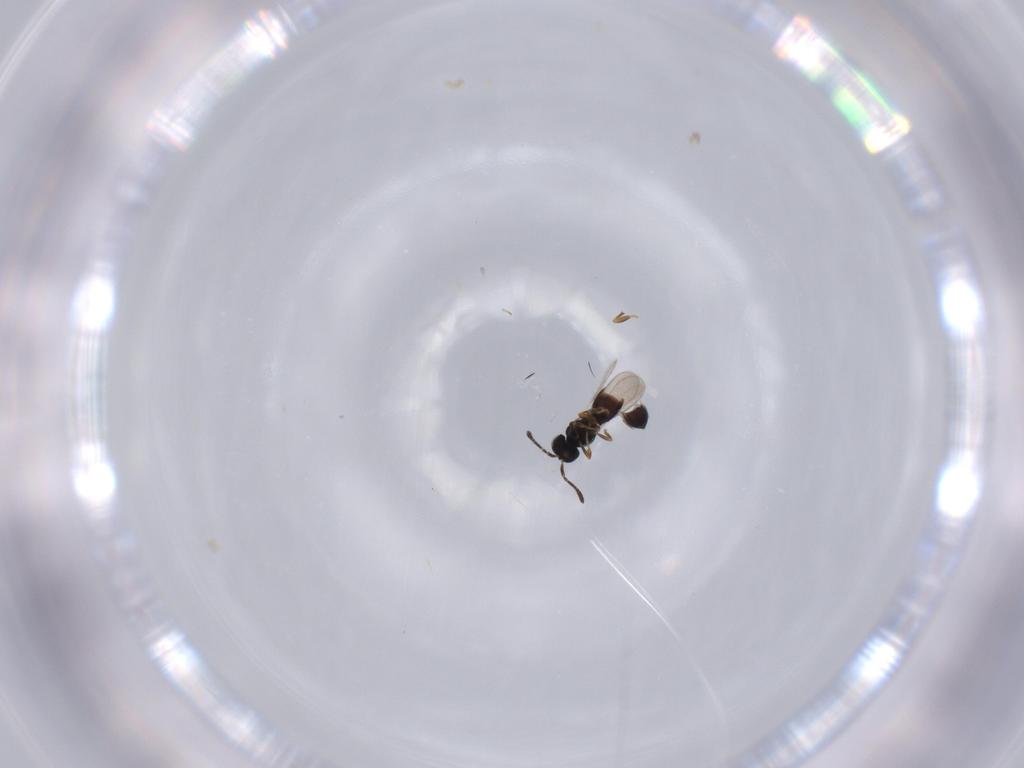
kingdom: Animalia
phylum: Arthropoda
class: Insecta
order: Hymenoptera
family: Scelionidae
